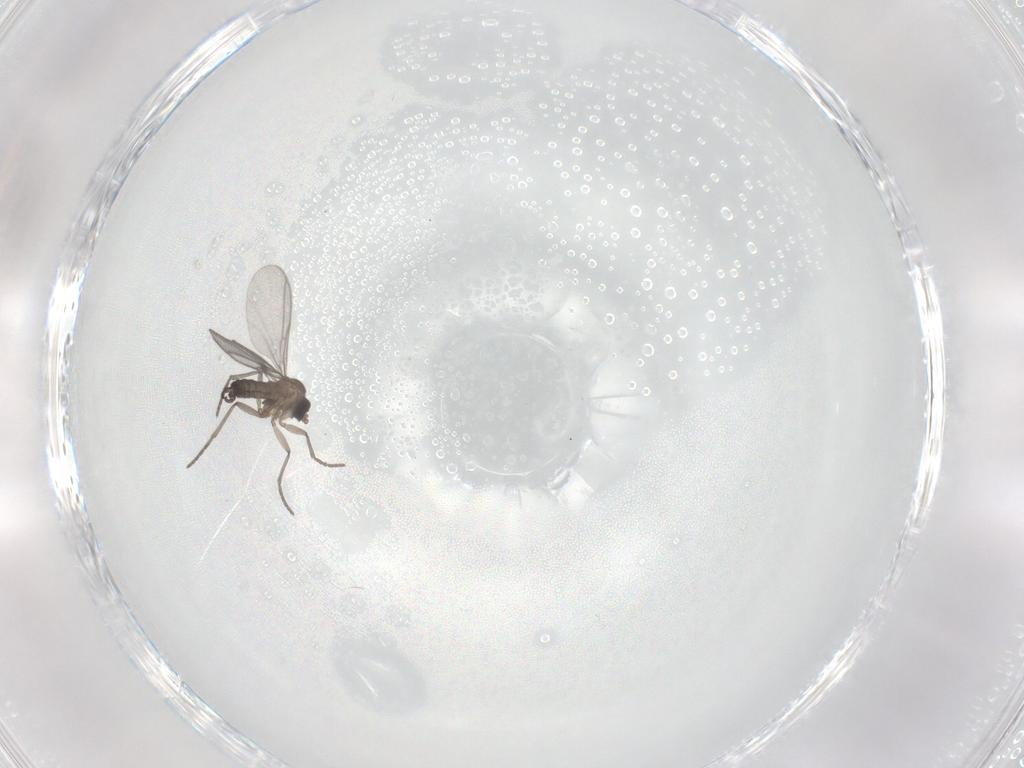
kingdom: Animalia
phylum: Arthropoda
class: Insecta
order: Diptera
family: Sciaridae
